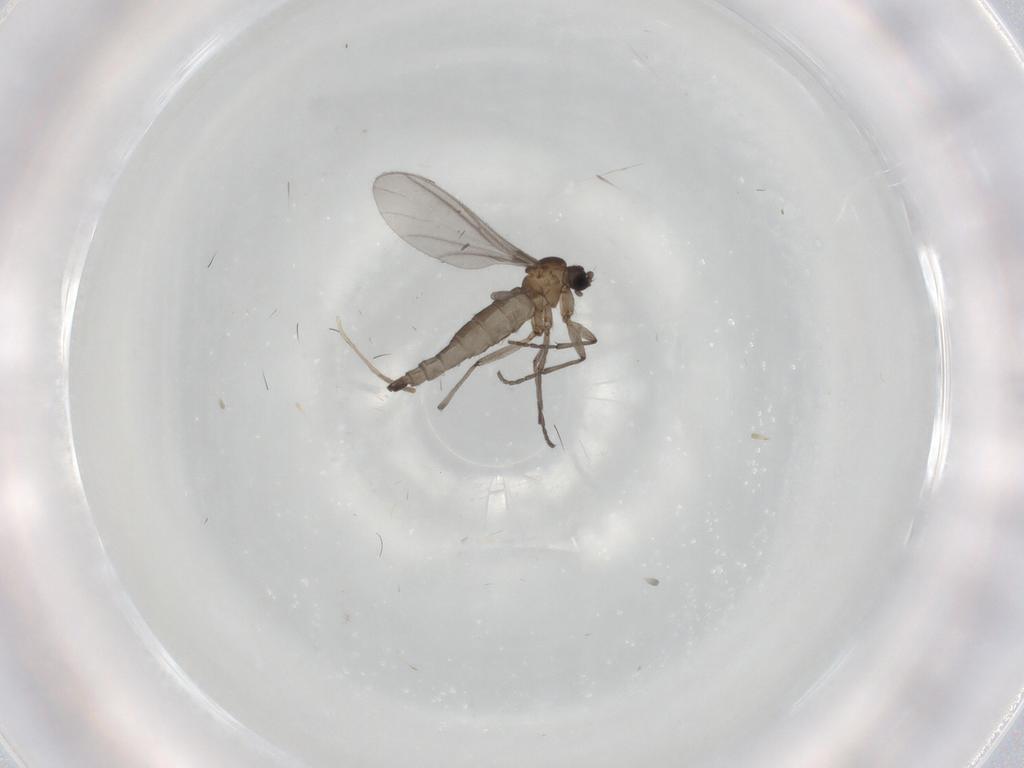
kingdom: Animalia
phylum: Arthropoda
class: Insecta
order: Diptera
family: Sciaridae
